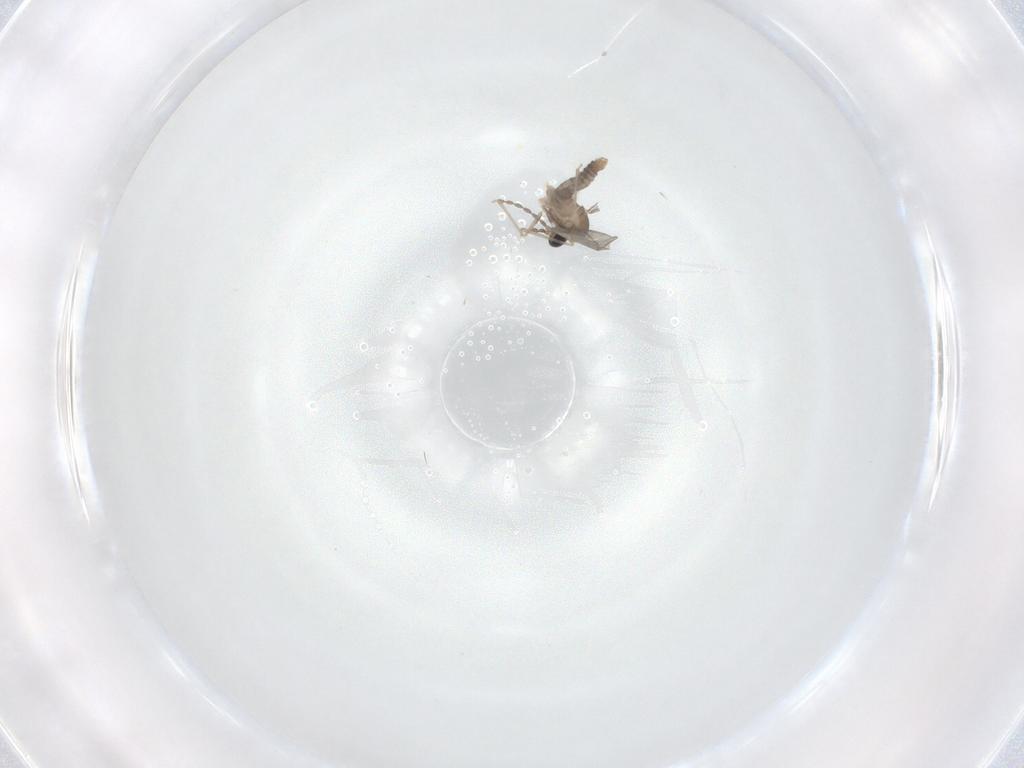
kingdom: Animalia
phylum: Arthropoda
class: Insecta
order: Diptera
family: Cecidomyiidae
